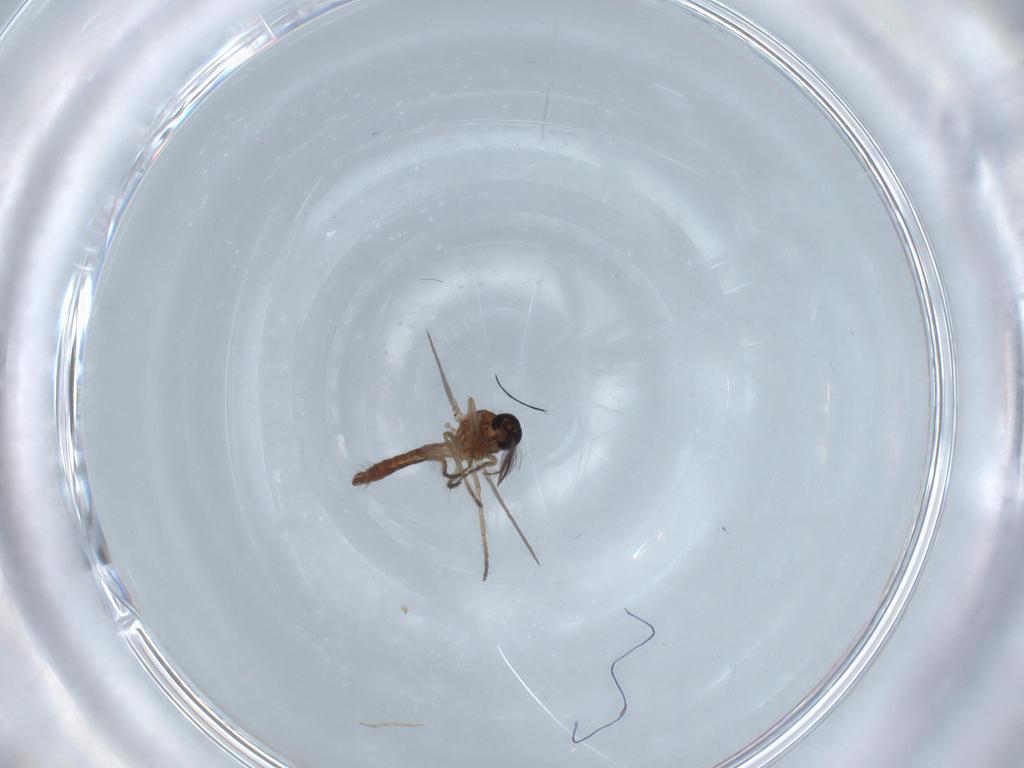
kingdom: Animalia
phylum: Arthropoda
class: Insecta
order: Diptera
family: Ceratopogonidae
